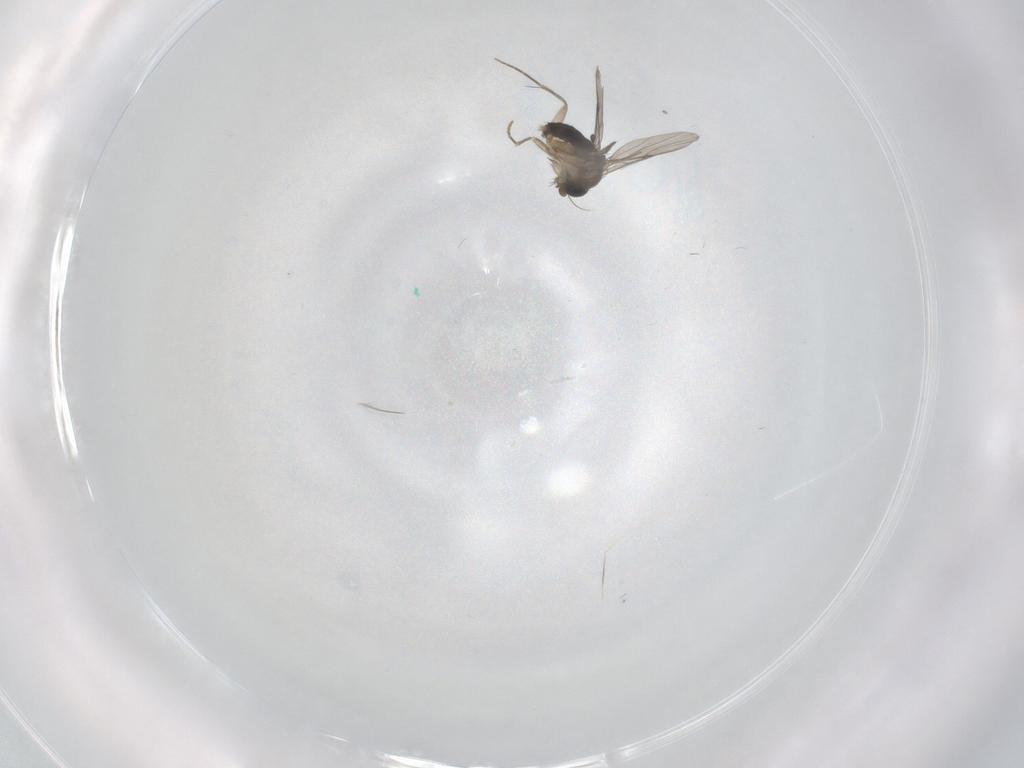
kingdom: Animalia
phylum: Arthropoda
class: Insecta
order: Diptera
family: Phoridae
